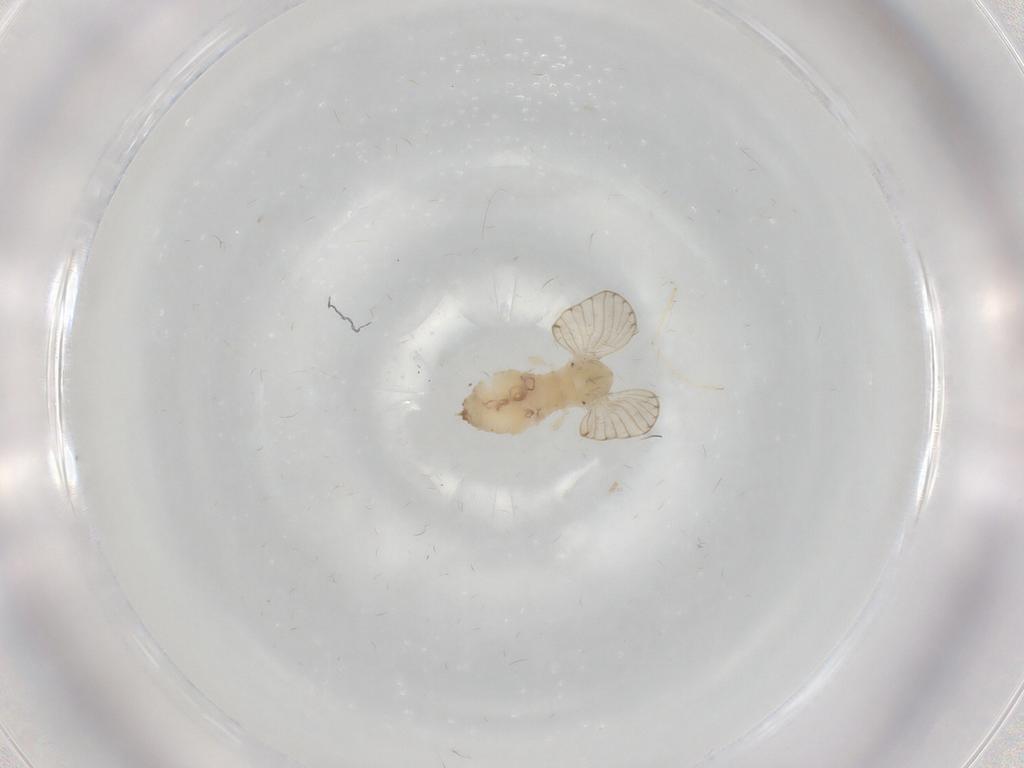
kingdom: Animalia
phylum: Arthropoda
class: Insecta
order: Diptera
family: Psychodidae
